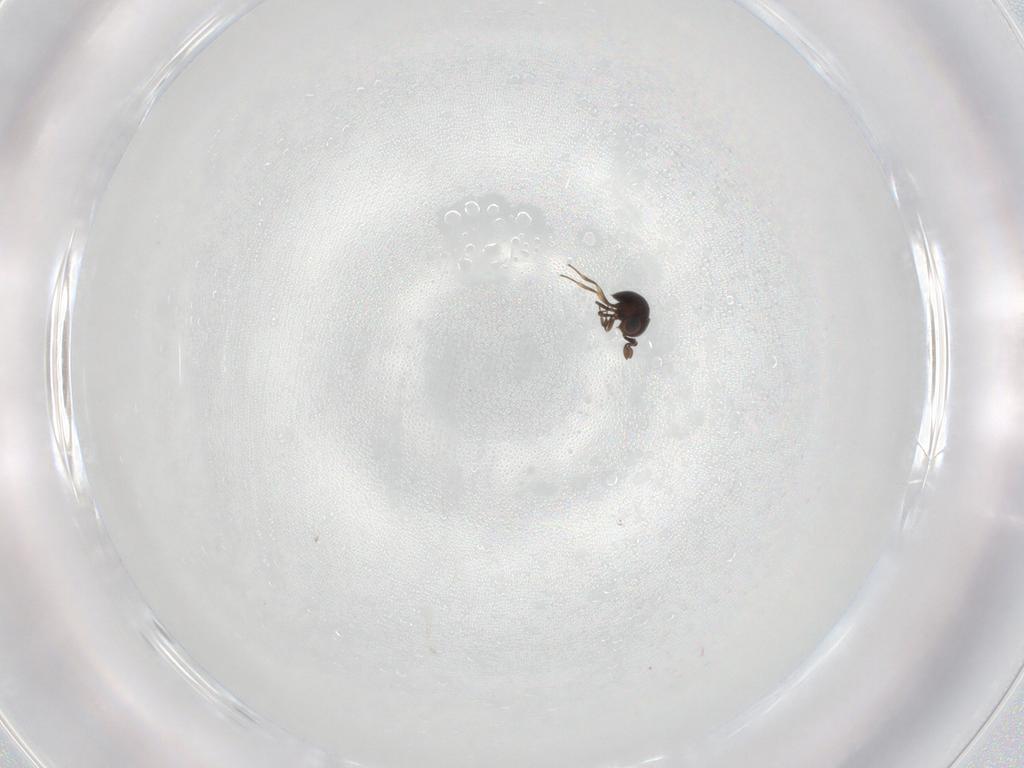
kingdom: Animalia
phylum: Arthropoda
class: Insecta
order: Hymenoptera
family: Scelionidae
